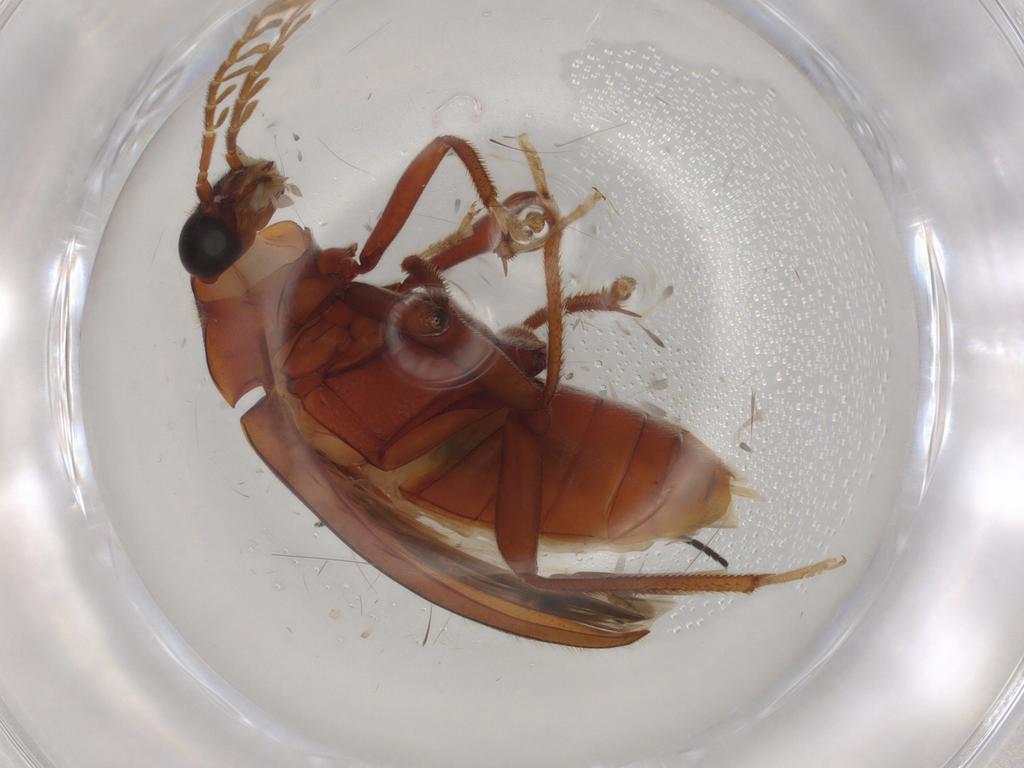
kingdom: Animalia
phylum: Arthropoda
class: Insecta
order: Coleoptera
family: Ptilodactylidae
